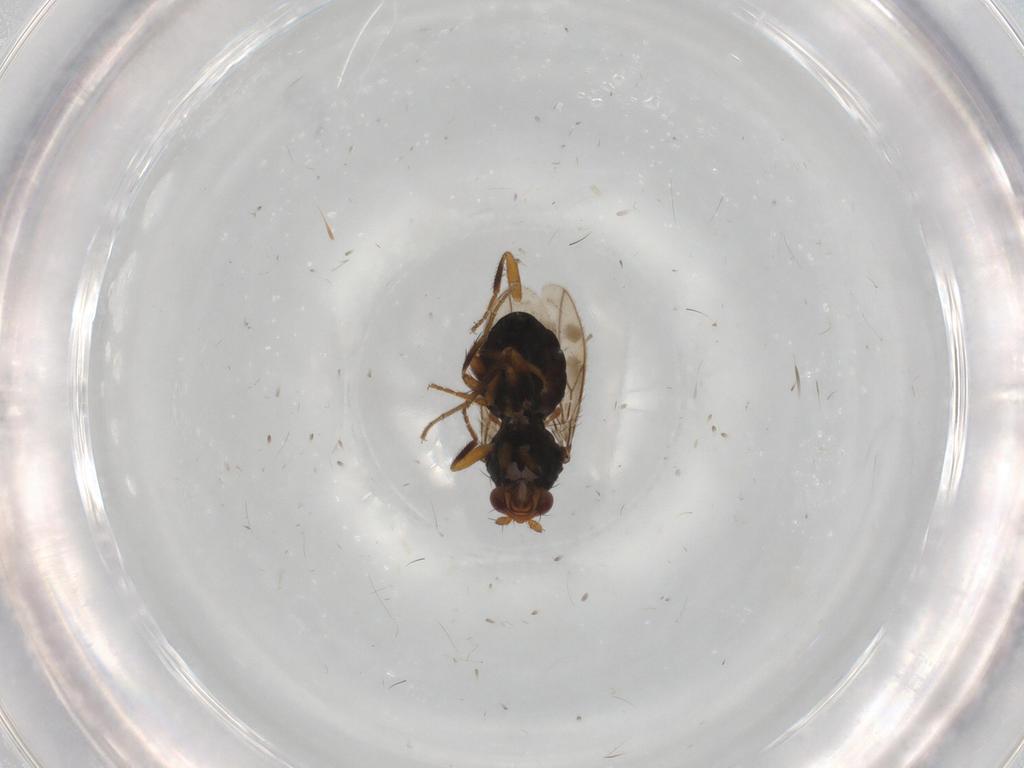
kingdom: Animalia
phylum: Arthropoda
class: Insecta
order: Diptera
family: Sphaeroceridae
